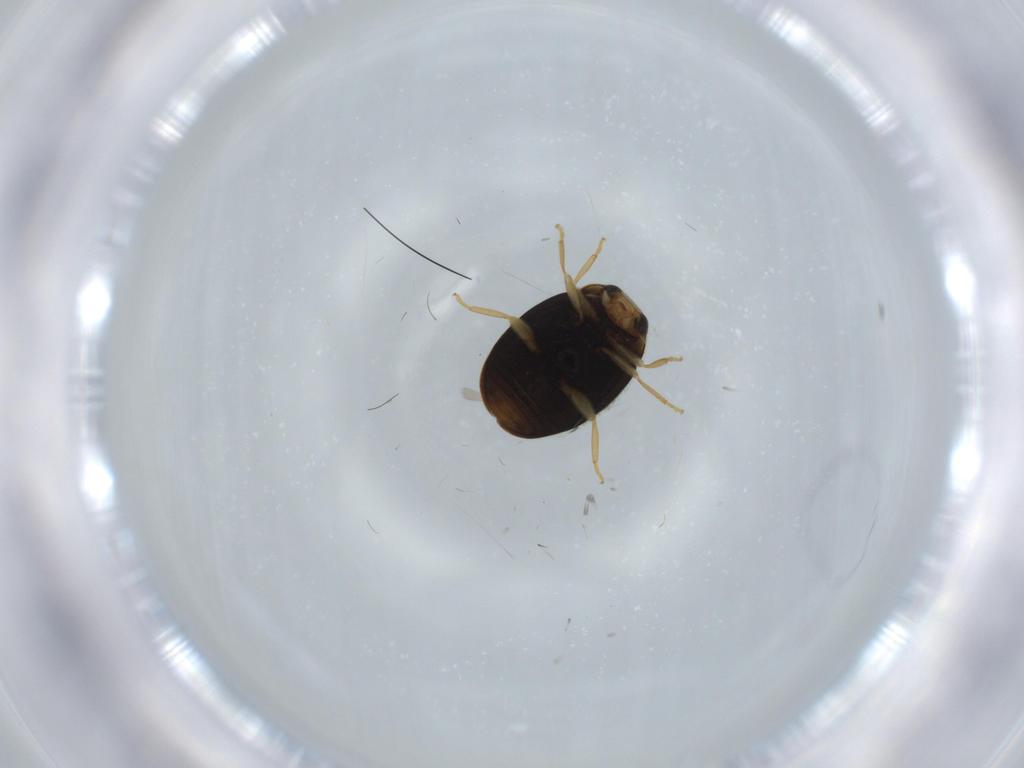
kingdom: Animalia
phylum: Arthropoda
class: Insecta
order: Coleoptera
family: Coccinellidae
